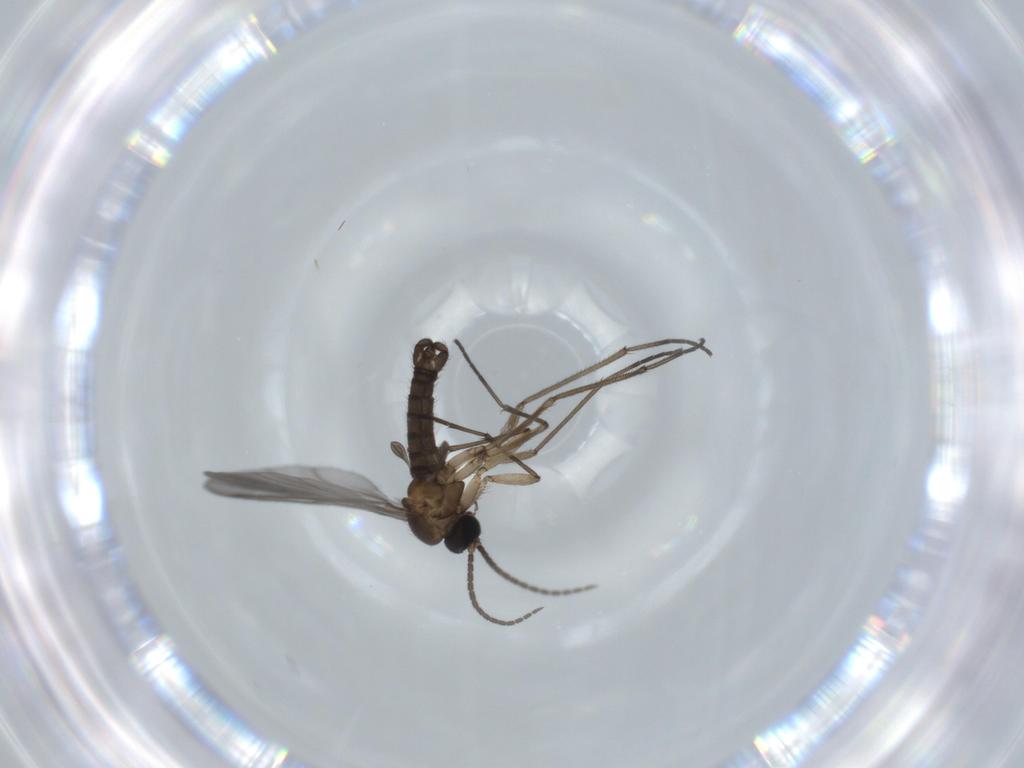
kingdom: Animalia
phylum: Arthropoda
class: Insecta
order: Diptera
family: Sciaridae
